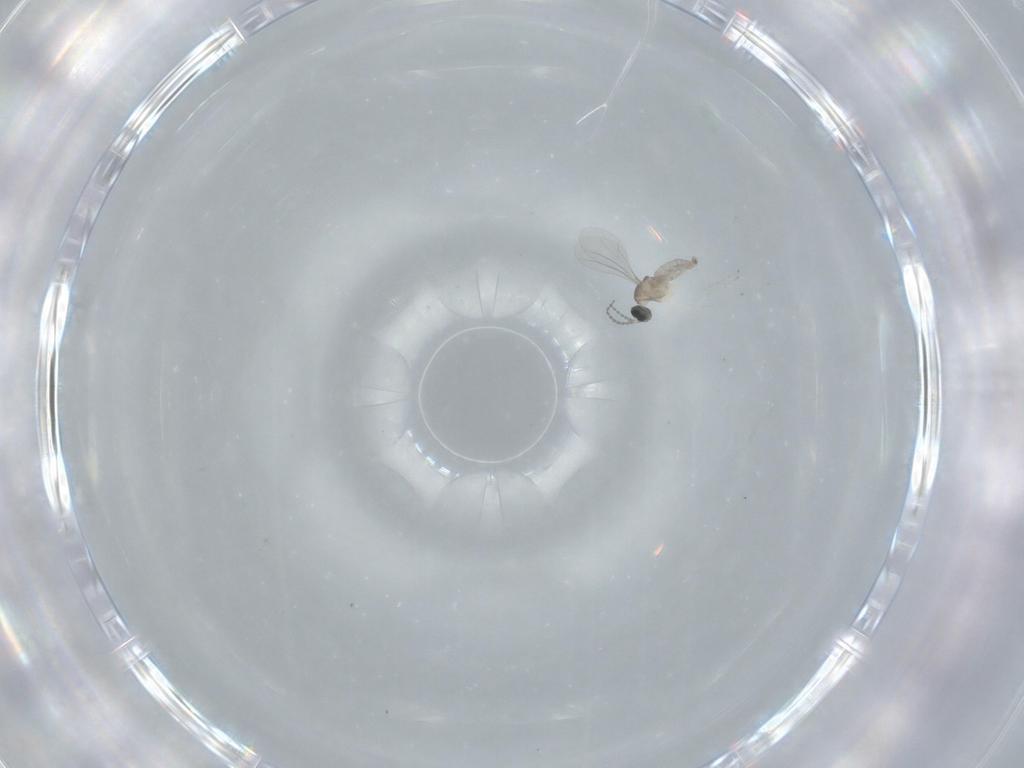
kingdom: Animalia
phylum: Arthropoda
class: Insecta
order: Diptera
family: Cecidomyiidae
